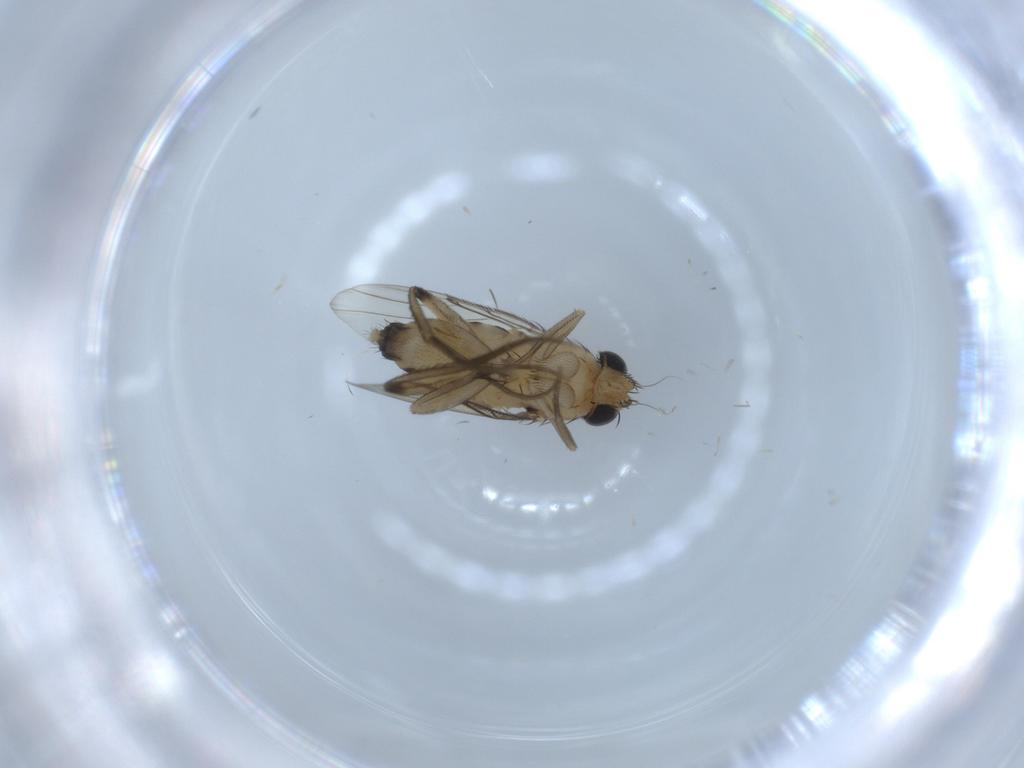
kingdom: Animalia
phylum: Arthropoda
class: Insecta
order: Diptera
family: Phoridae
